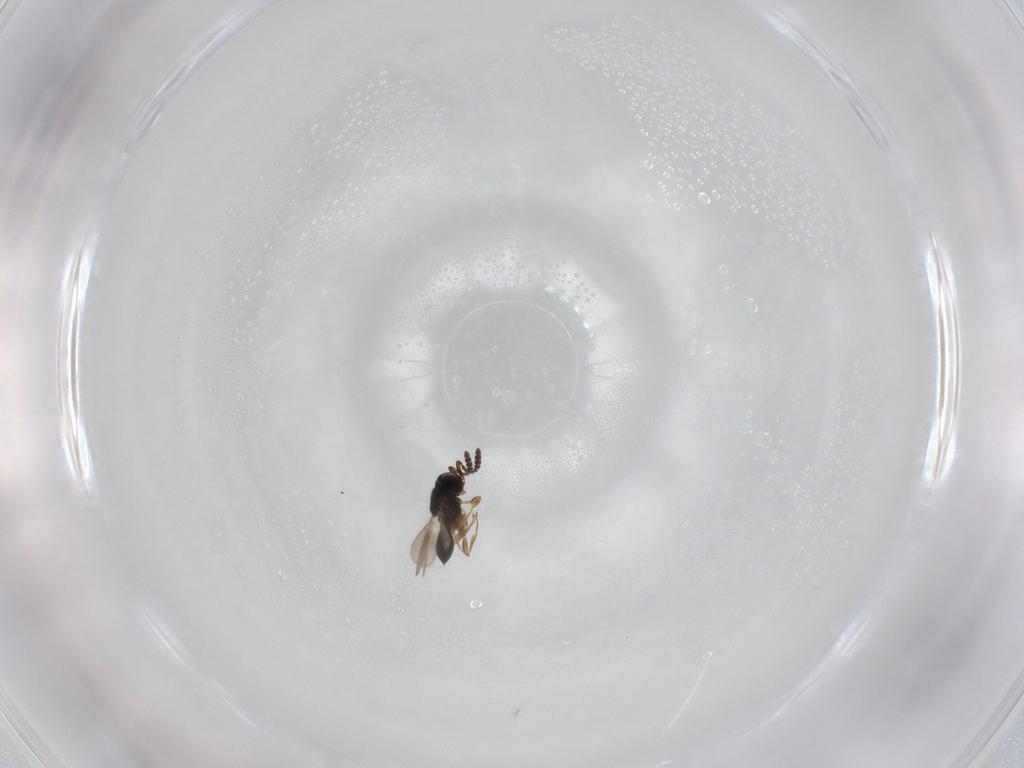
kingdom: Animalia
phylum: Arthropoda
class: Insecta
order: Hymenoptera
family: Scelionidae
